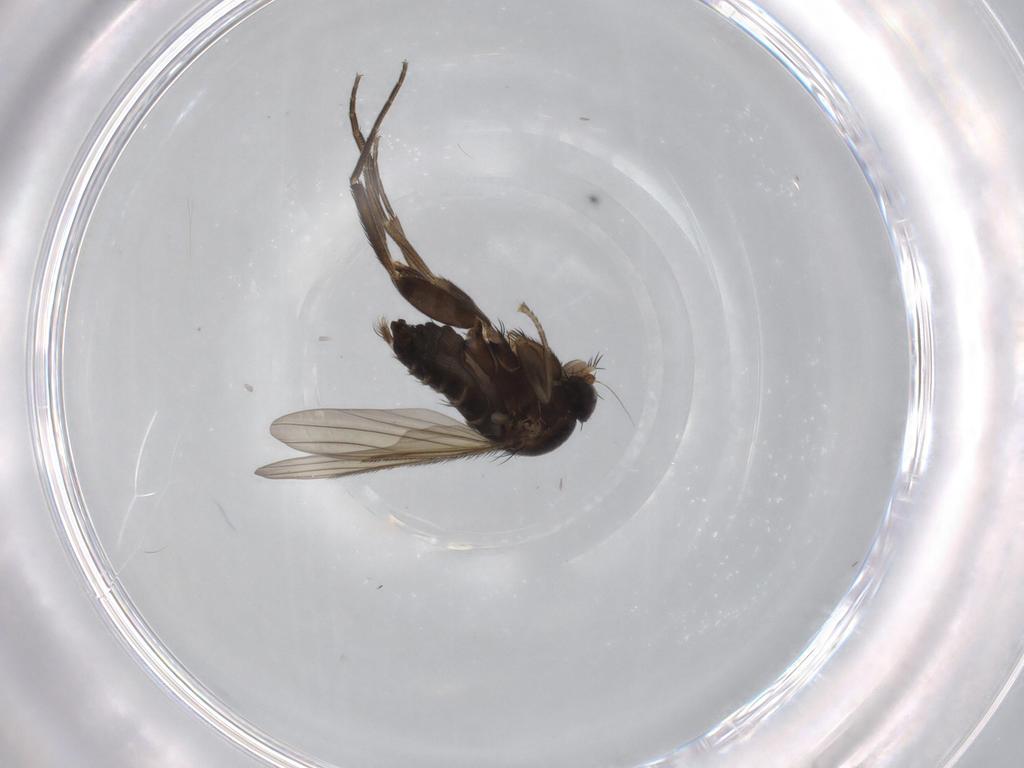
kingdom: Animalia
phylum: Arthropoda
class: Insecta
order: Diptera
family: Phoridae
